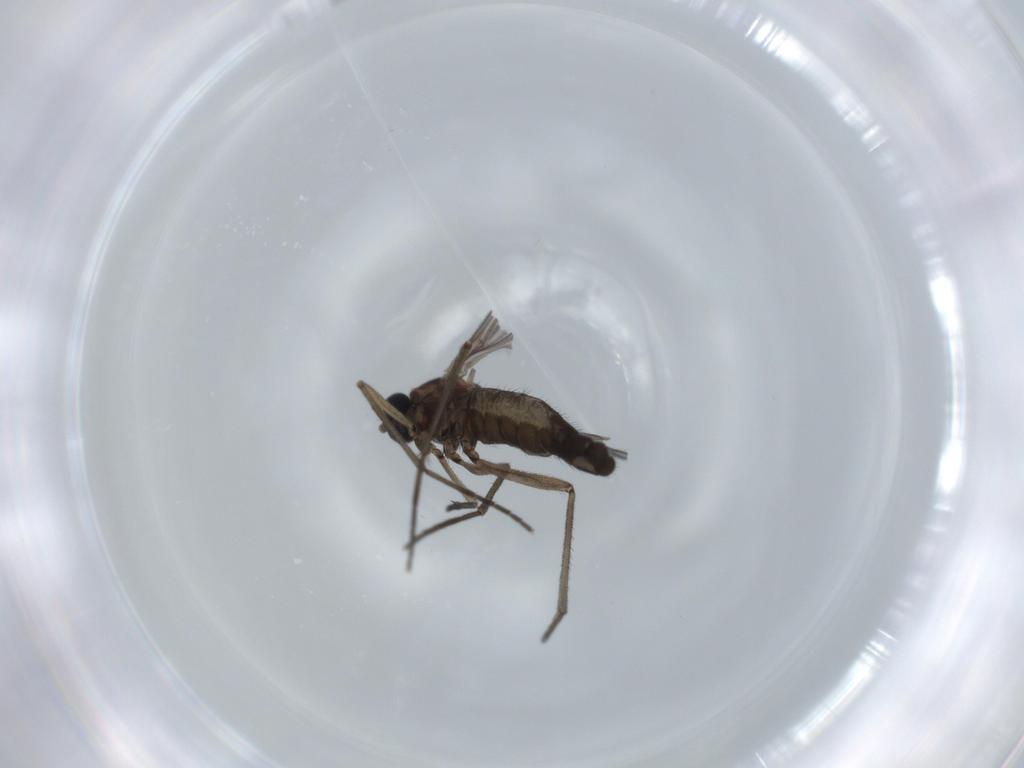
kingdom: Animalia
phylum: Arthropoda
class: Insecta
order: Diptera
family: Sciaridae
